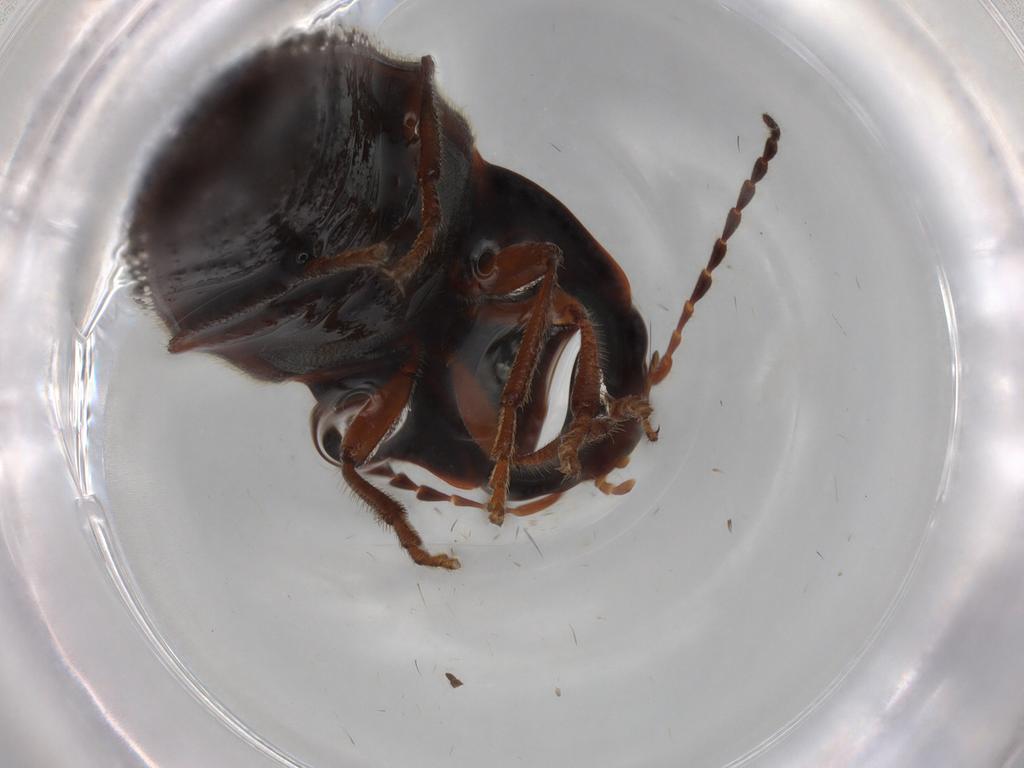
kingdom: Animalia
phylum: Arthropoda
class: Insecta
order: Coleoptera
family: Elateridae
